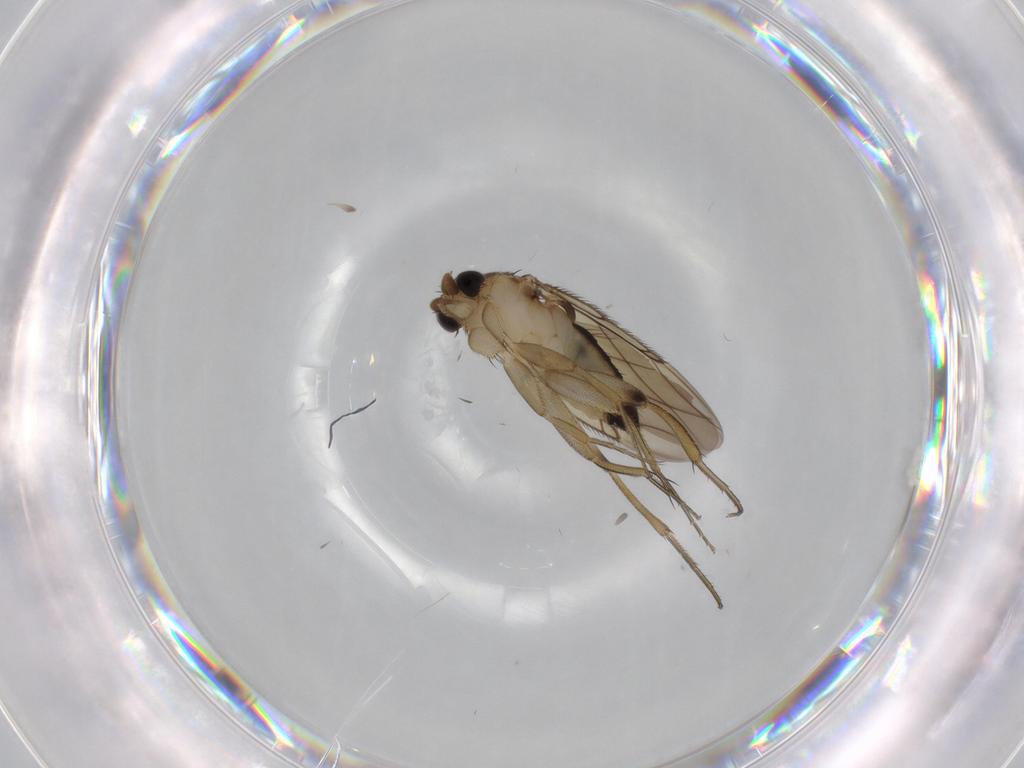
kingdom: Animalia
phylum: Arthropoda
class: Insecta
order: Diptera
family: Phoridae
